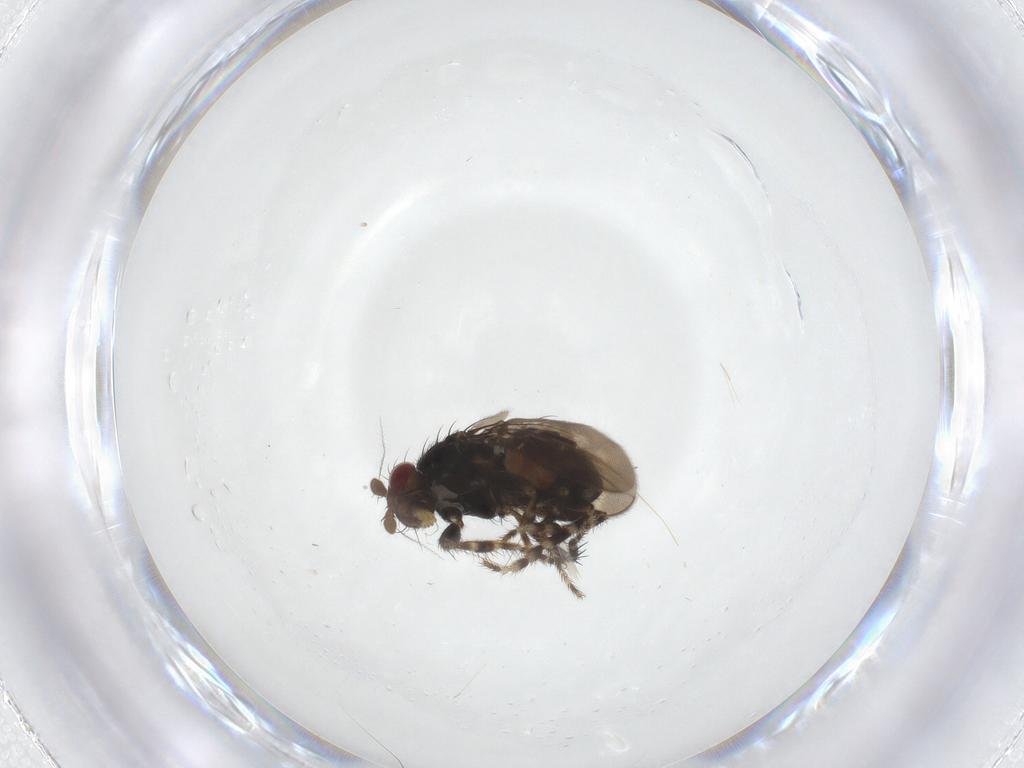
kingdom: Animalia
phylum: Arthropoda
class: Insecta
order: Diptera
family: Sphaeroceridae
